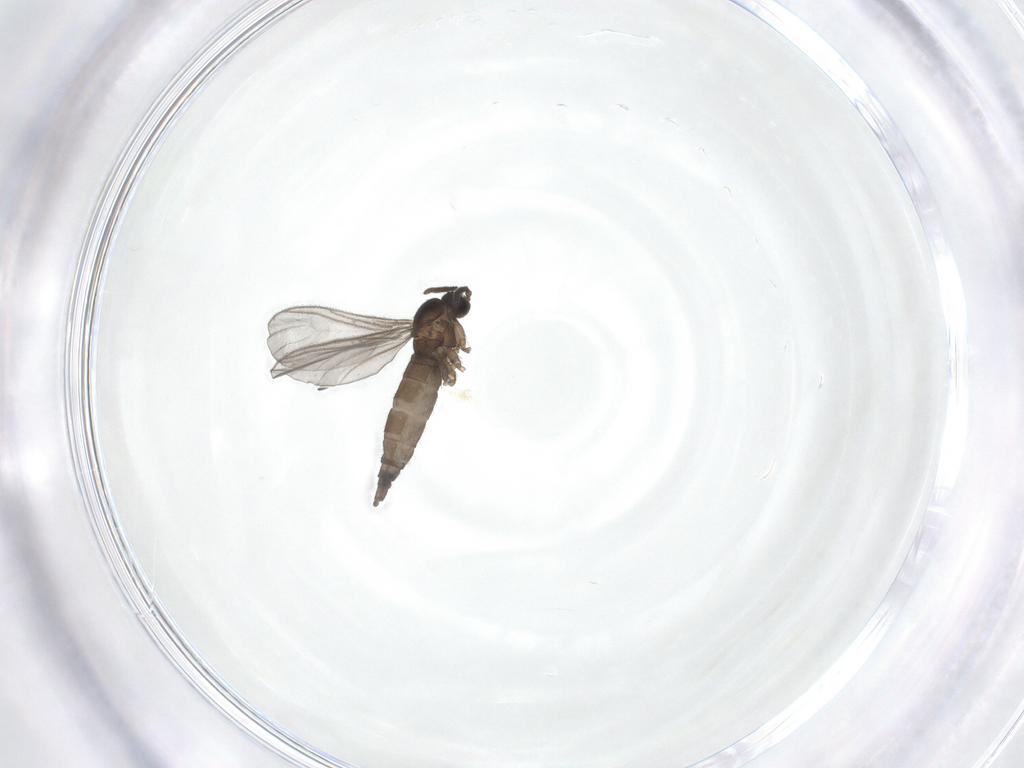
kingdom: Animalia
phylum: Arthropoda
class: Insecta
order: Diptera
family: Sciaridae
